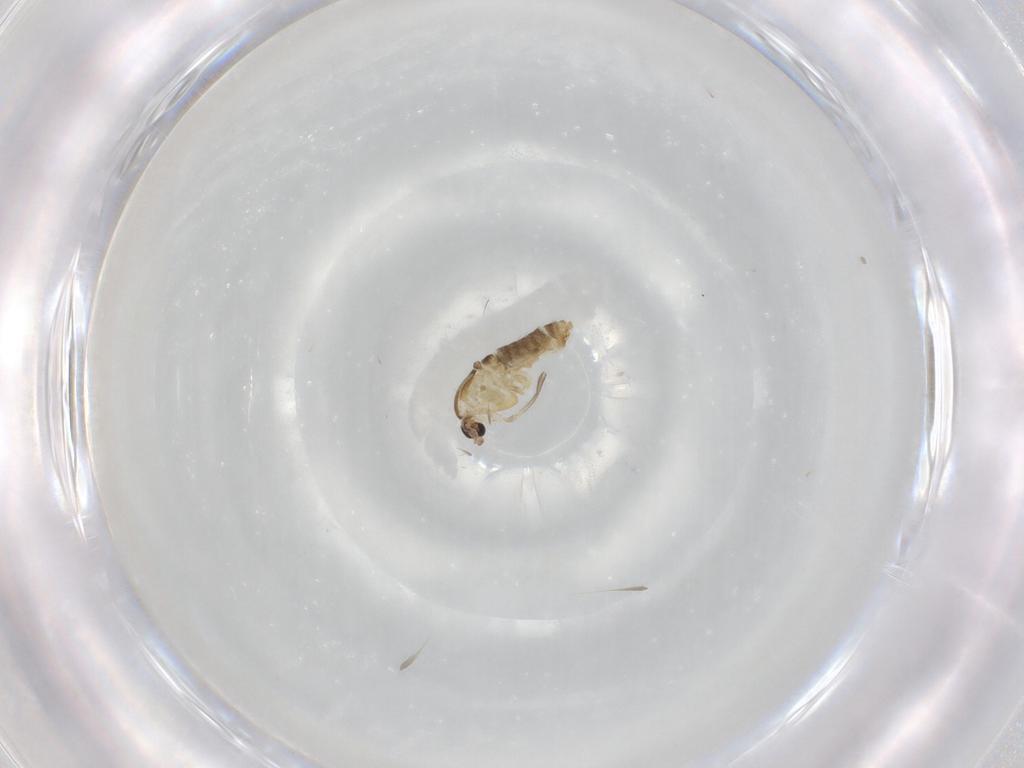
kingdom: Animalia
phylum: Arthropoda
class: Insecta
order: Diptera
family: Chironomidae
